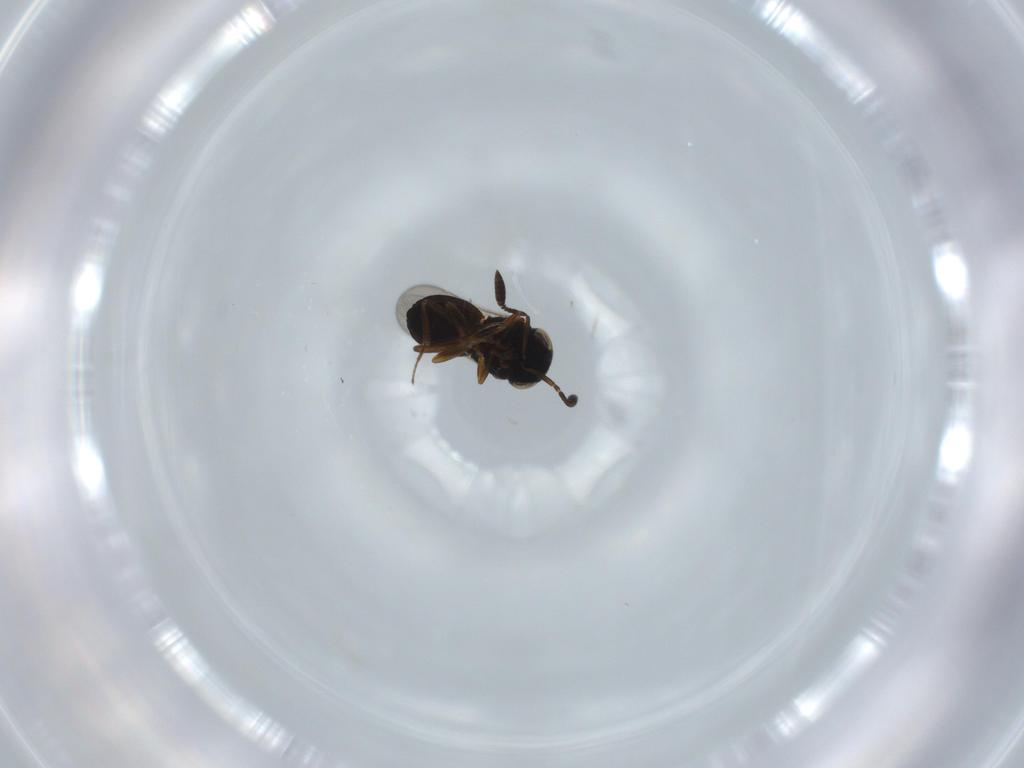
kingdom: Animalia
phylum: Arthropoda
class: Insecta
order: Coleoptera
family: Curculionidae
